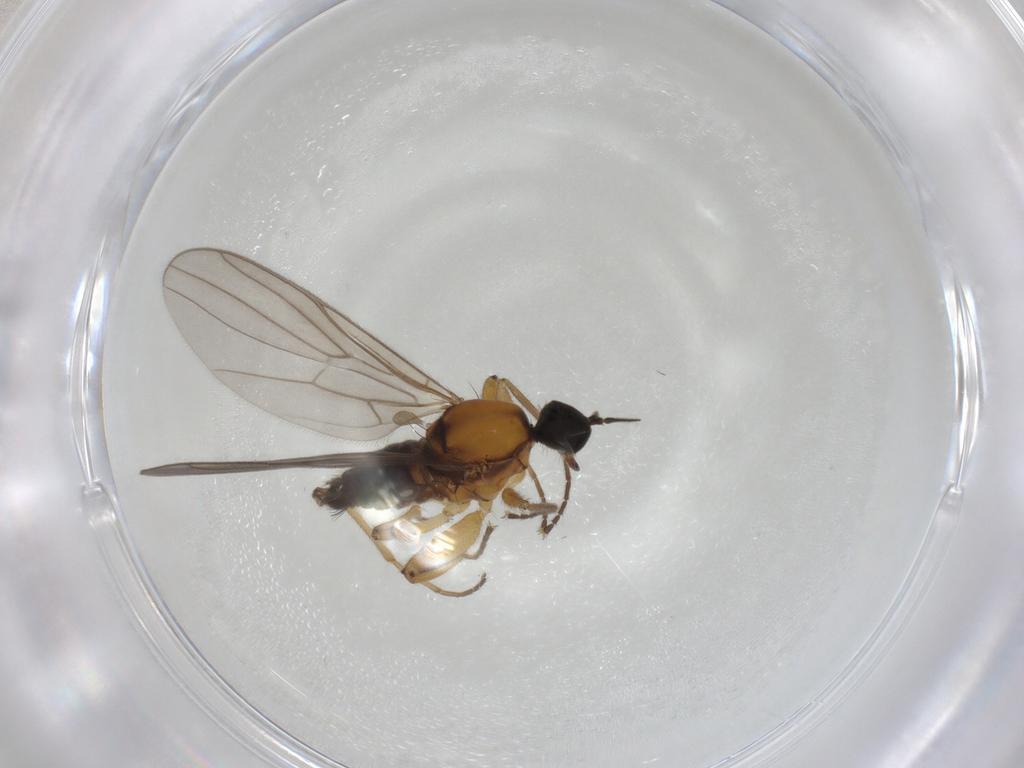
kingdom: Animalia
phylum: Arthropoda
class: Insecta
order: Diptera
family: Hybotidae
